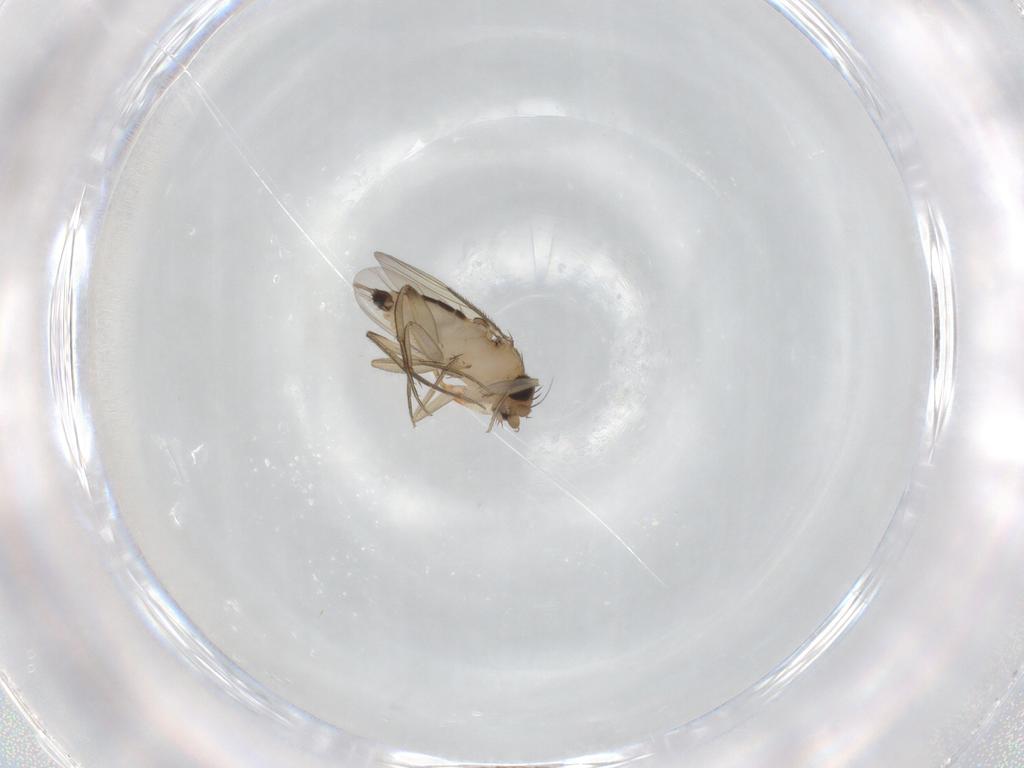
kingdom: Animalia
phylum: Arthropoda
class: Insecta
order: Diptera
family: Phoridae
